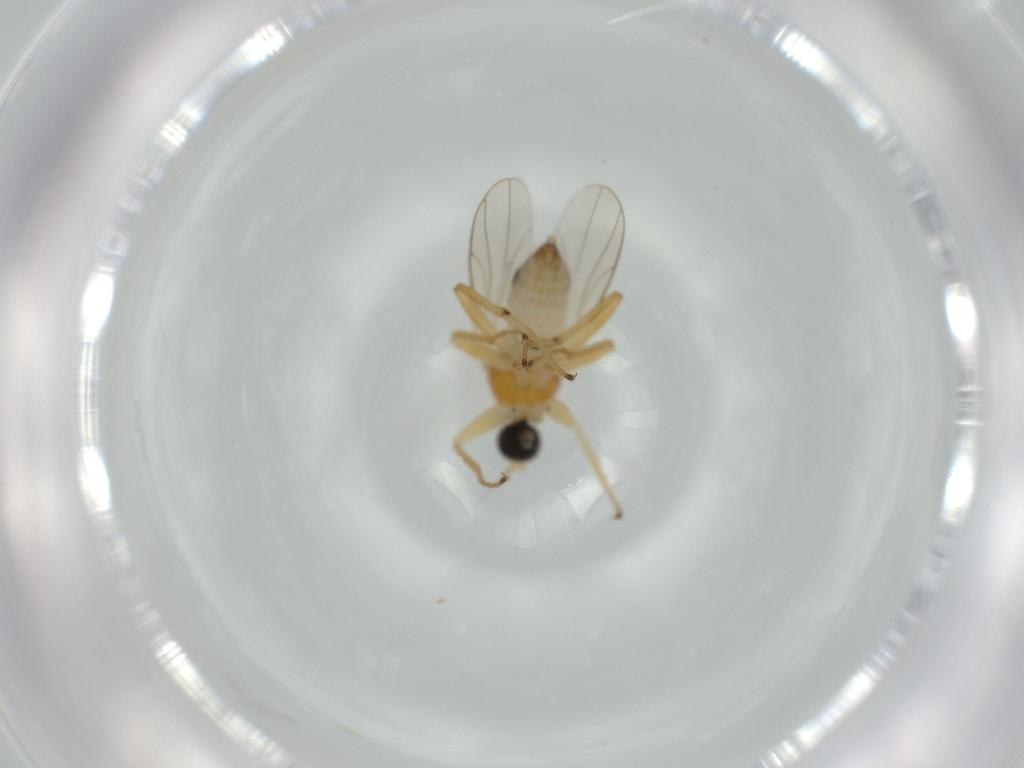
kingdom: Animalia
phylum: Arthropoda
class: Insecta
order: Diptera
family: Hybotidae
